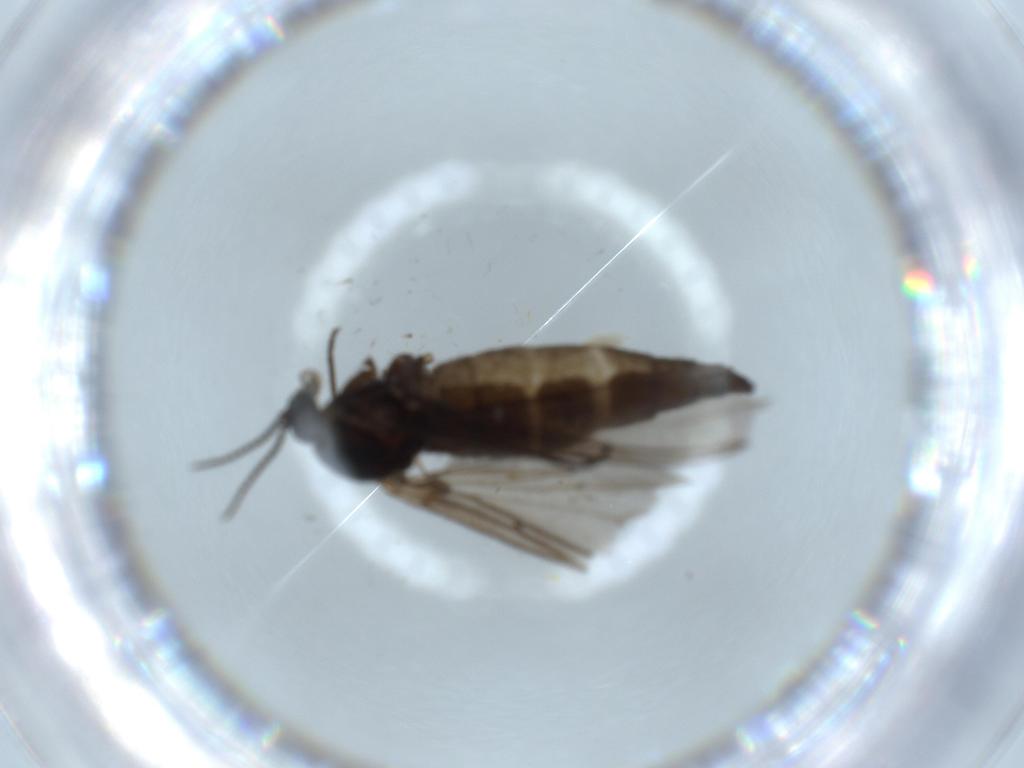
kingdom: Animalia
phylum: Arthropoda
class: Insecta
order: Diptera
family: Sciaridae
